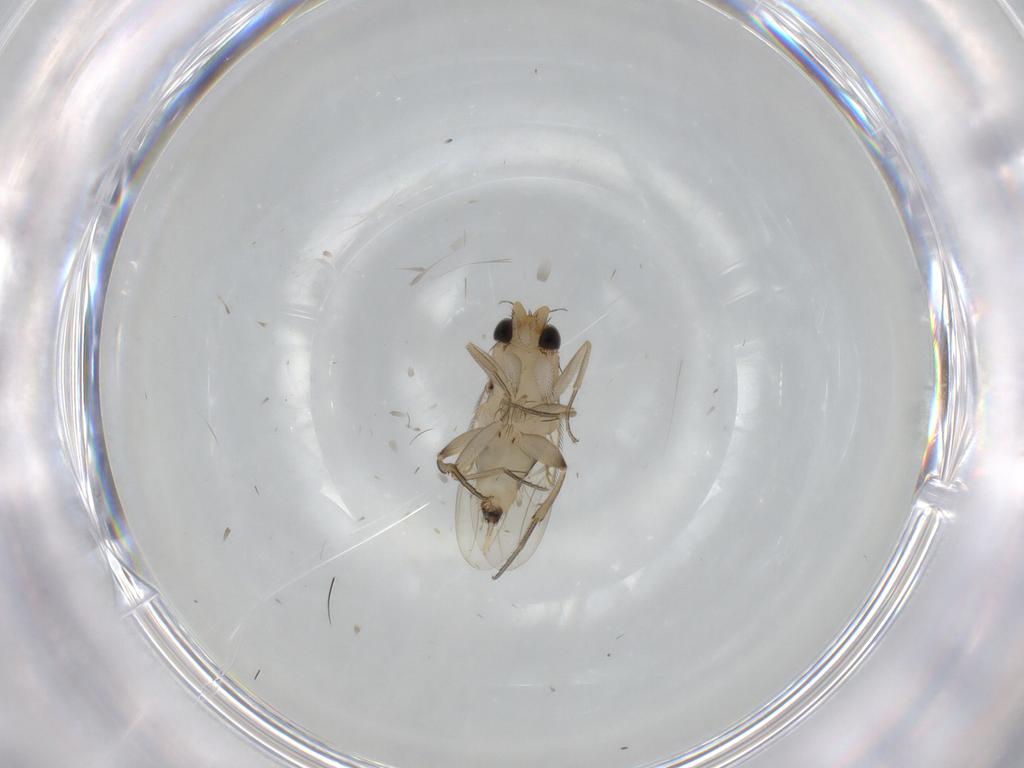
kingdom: Animalia
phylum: Arthropoda
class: Insecta
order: Diptera
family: Phoridae
